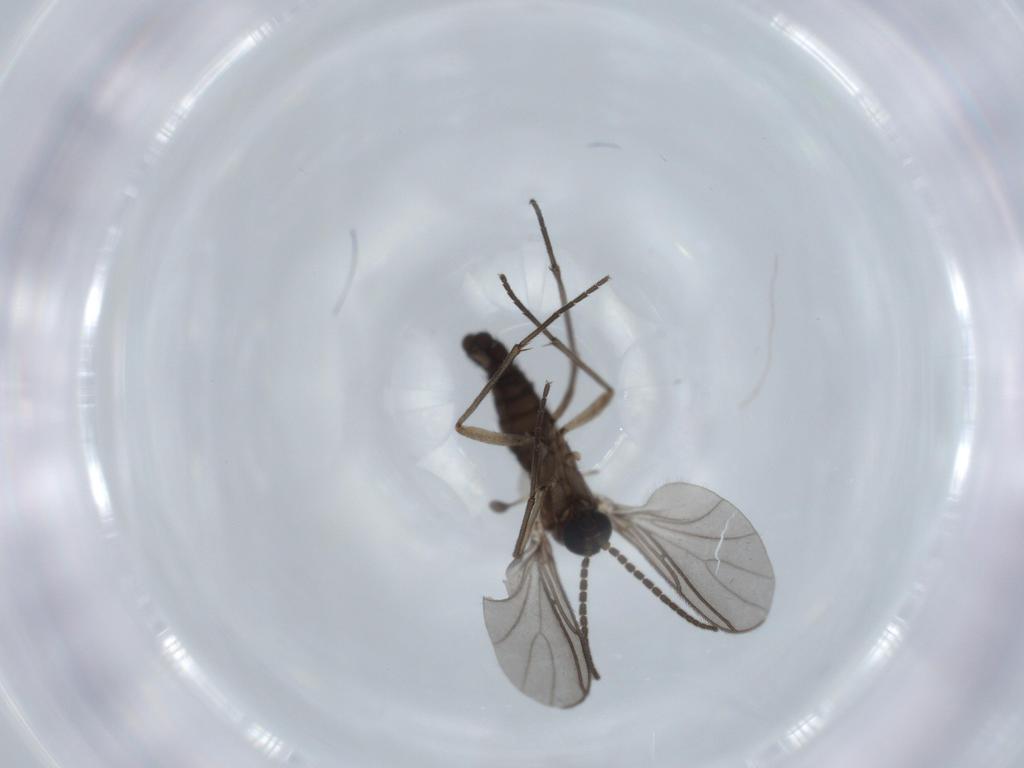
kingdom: Animalia
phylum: Arthropoda
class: Insecta
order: Diptera
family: Sciaridae
